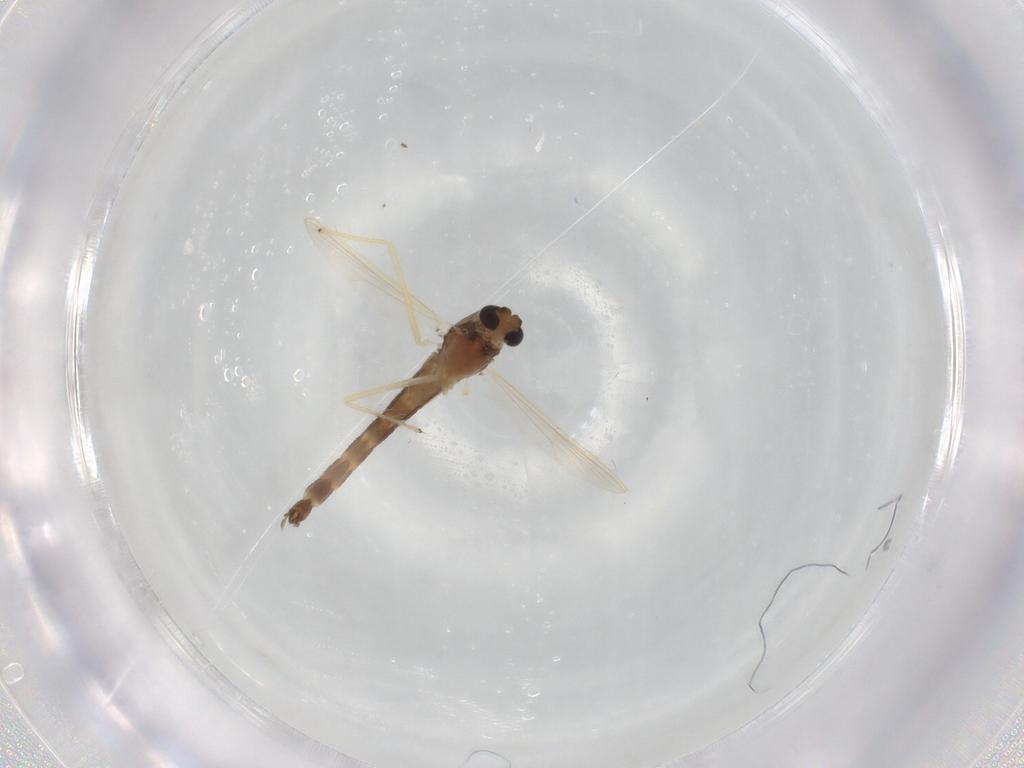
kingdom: Animalia
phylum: Arthropoda
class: Insecta
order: Diptera
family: Chironomidae
